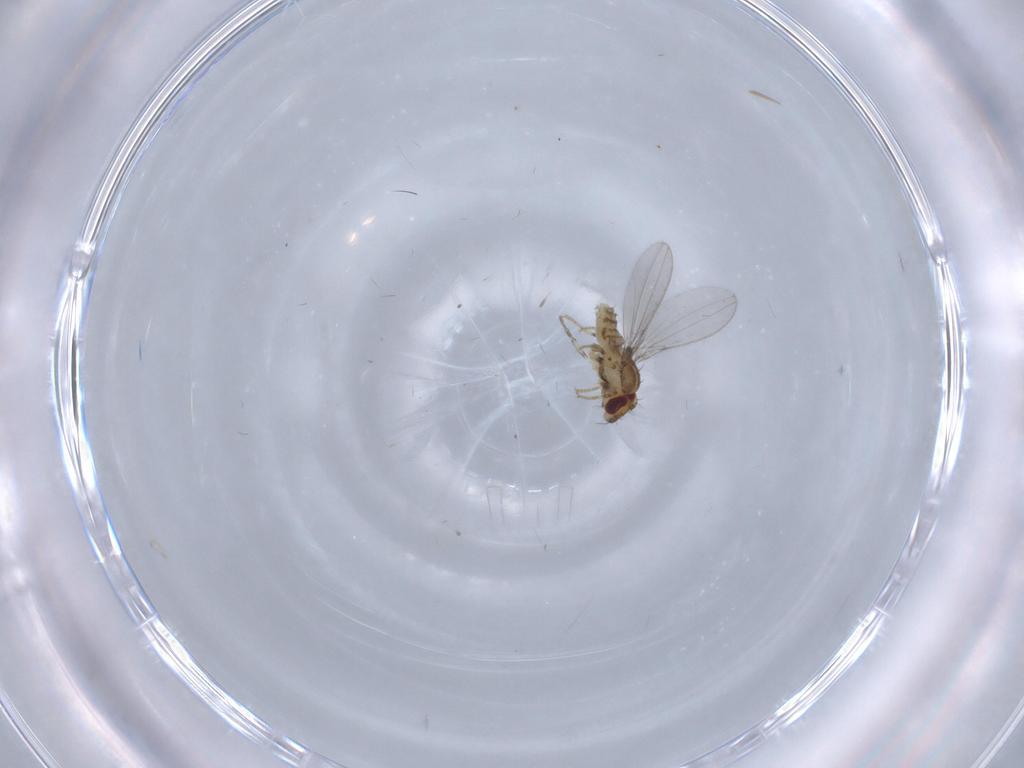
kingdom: Animalia
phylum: Arthropoda
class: Insecta
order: Diptera
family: Asteiidae
